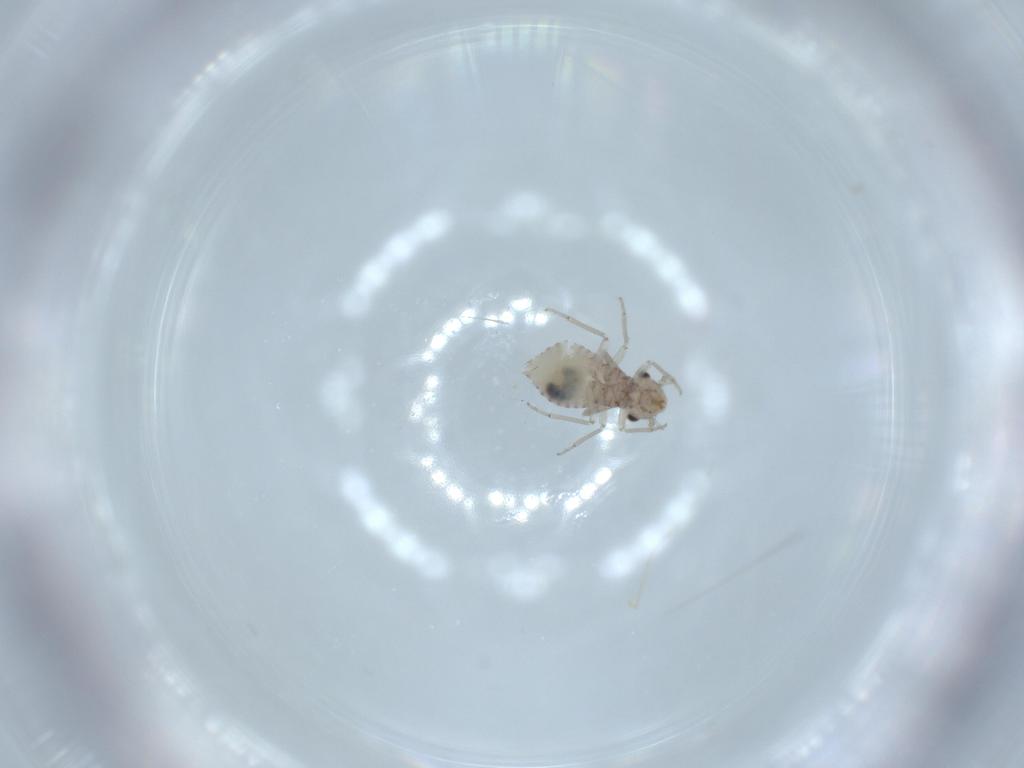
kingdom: Animalia
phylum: Arthropoda
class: Insecta
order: Psocodea
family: Lachesillidae
